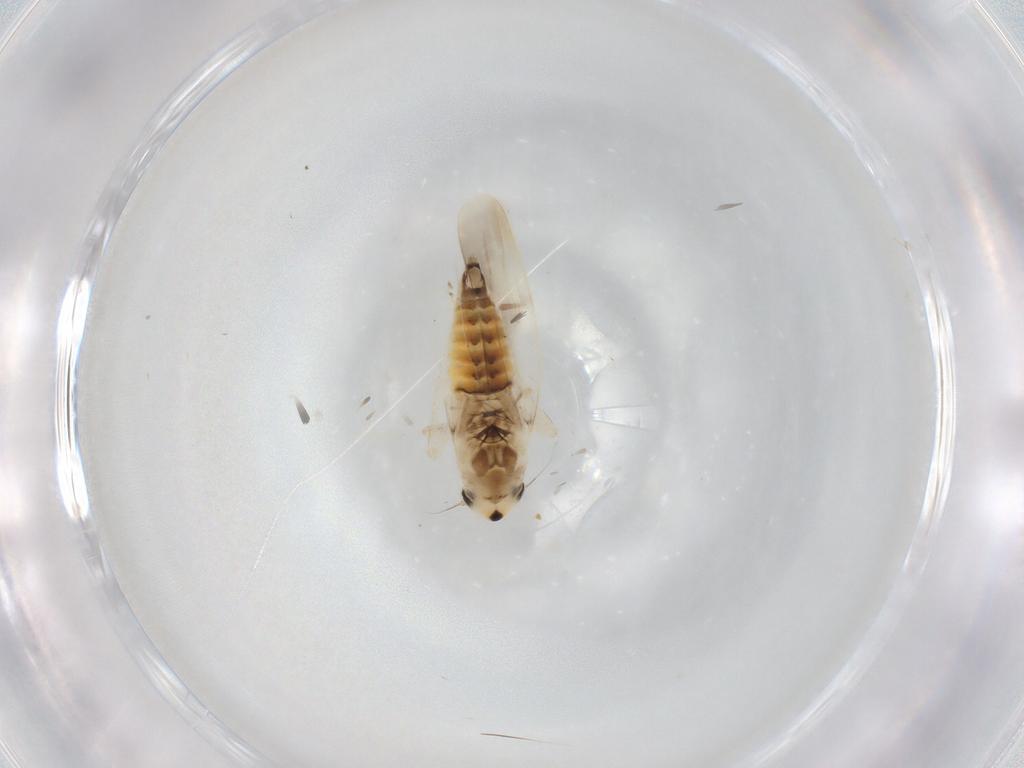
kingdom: Animalia
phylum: Arthropoda
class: Insecta
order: Hemiptera
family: Cicadellidae
